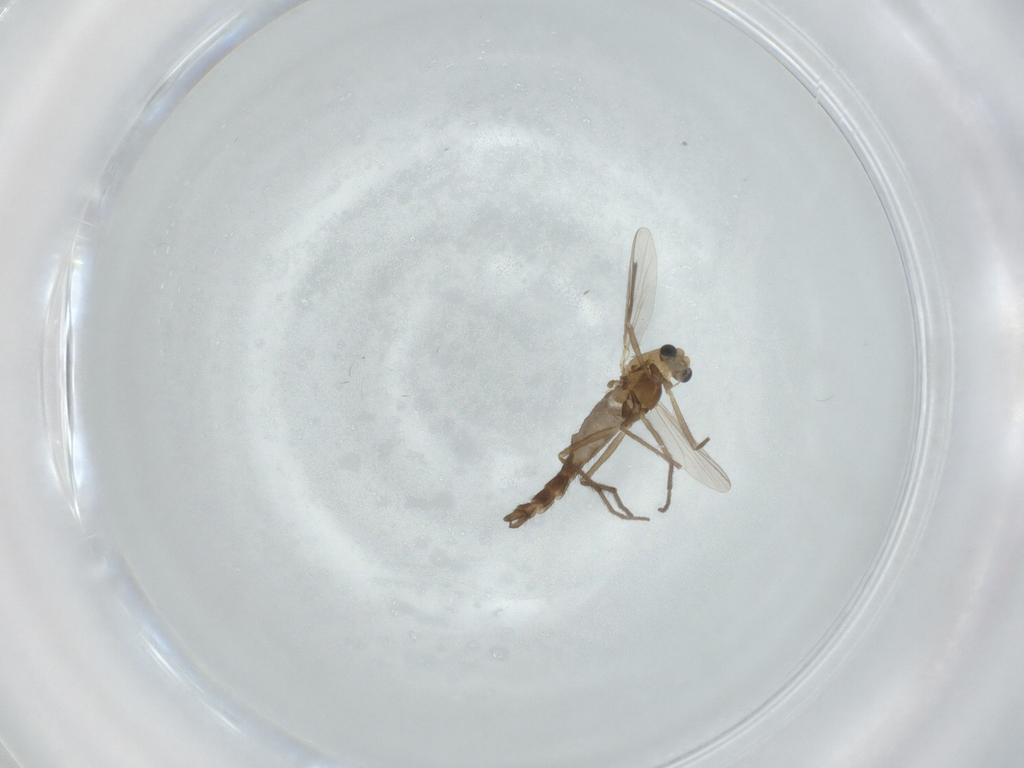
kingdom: Animalia
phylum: Arthropoda
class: Insecta
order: Diptera
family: Chironomidae
